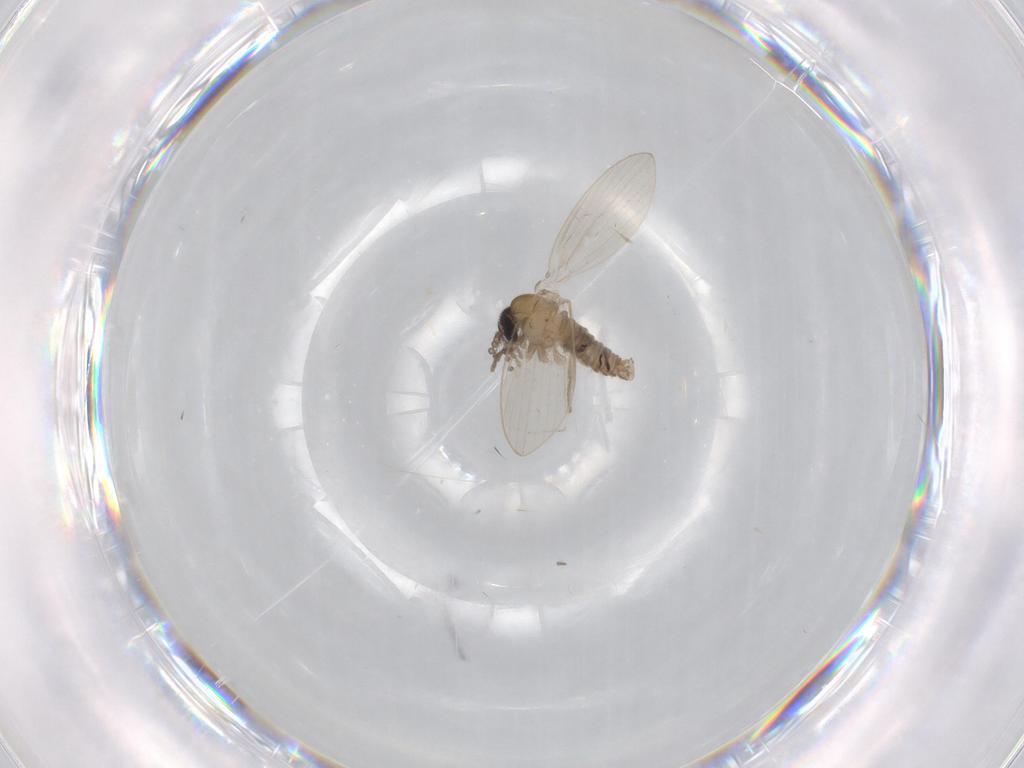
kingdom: Animalia
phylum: Arthropoda
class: Insecta
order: Diptera
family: Psychodidae
